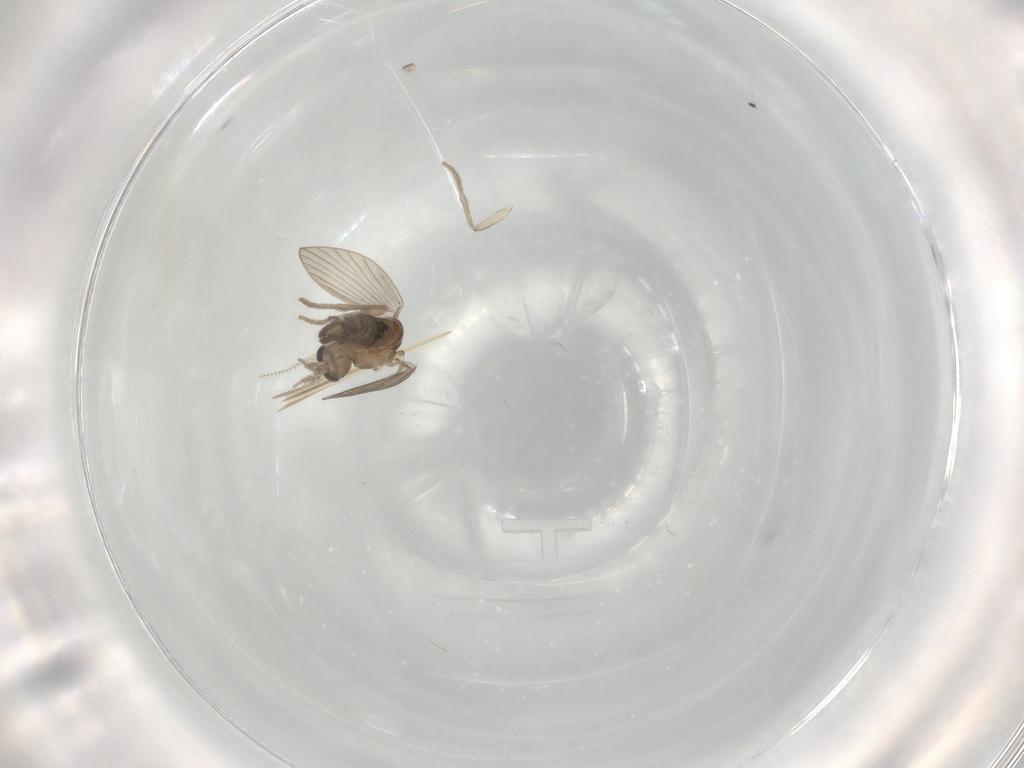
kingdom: Animalia
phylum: Arthropoda
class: Insecta
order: Diptera
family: Psychodidae
